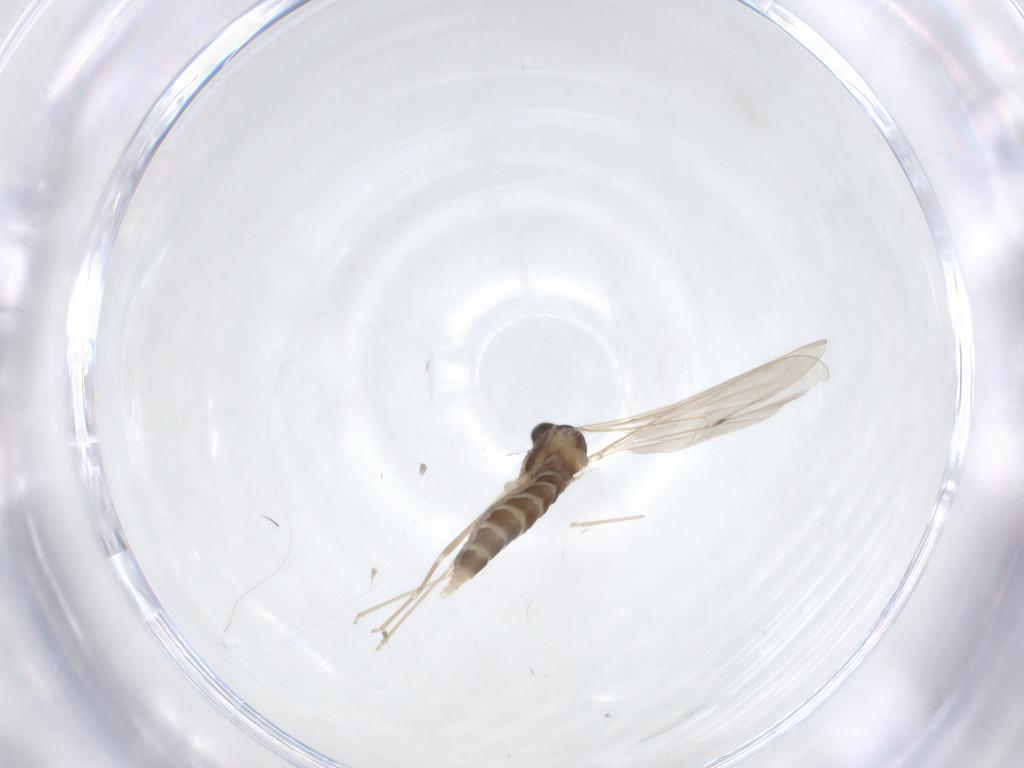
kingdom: Animalia
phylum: Arthropoda
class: Insecta
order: Diptera
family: Cecidomyiidae
